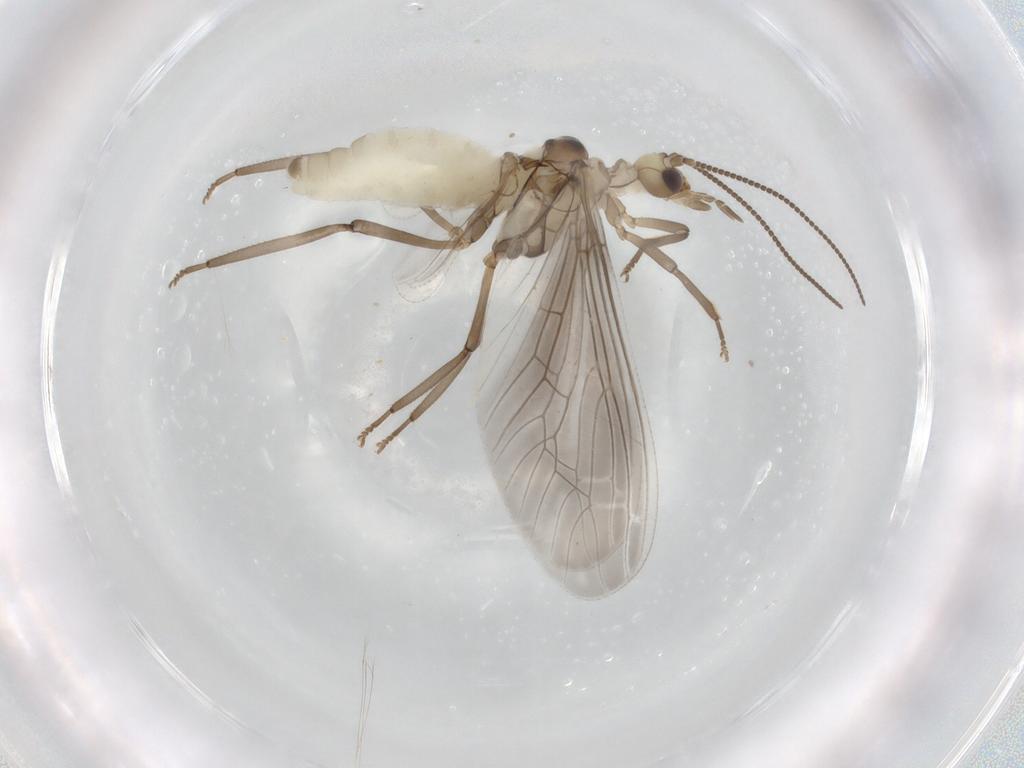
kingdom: Animalia
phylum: Arthropoda
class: Insecta
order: Neuroptera
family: Coniopterygidae
